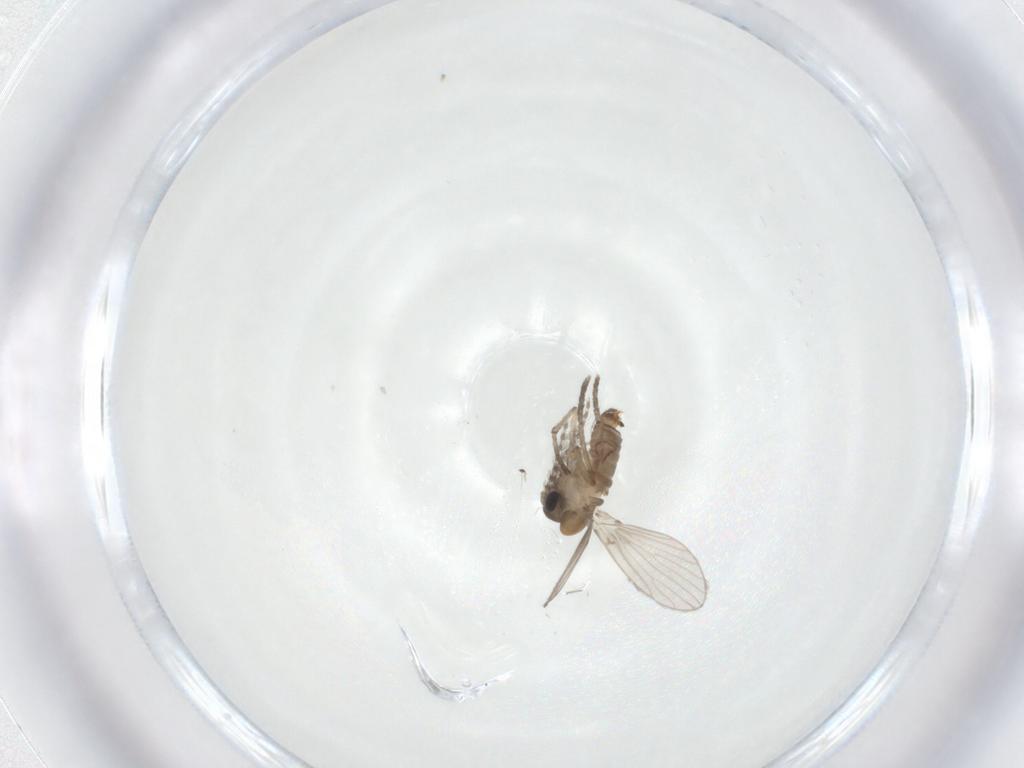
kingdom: Animalia
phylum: Arthropoda
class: Insecta
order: Diptera
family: Chironomidae
